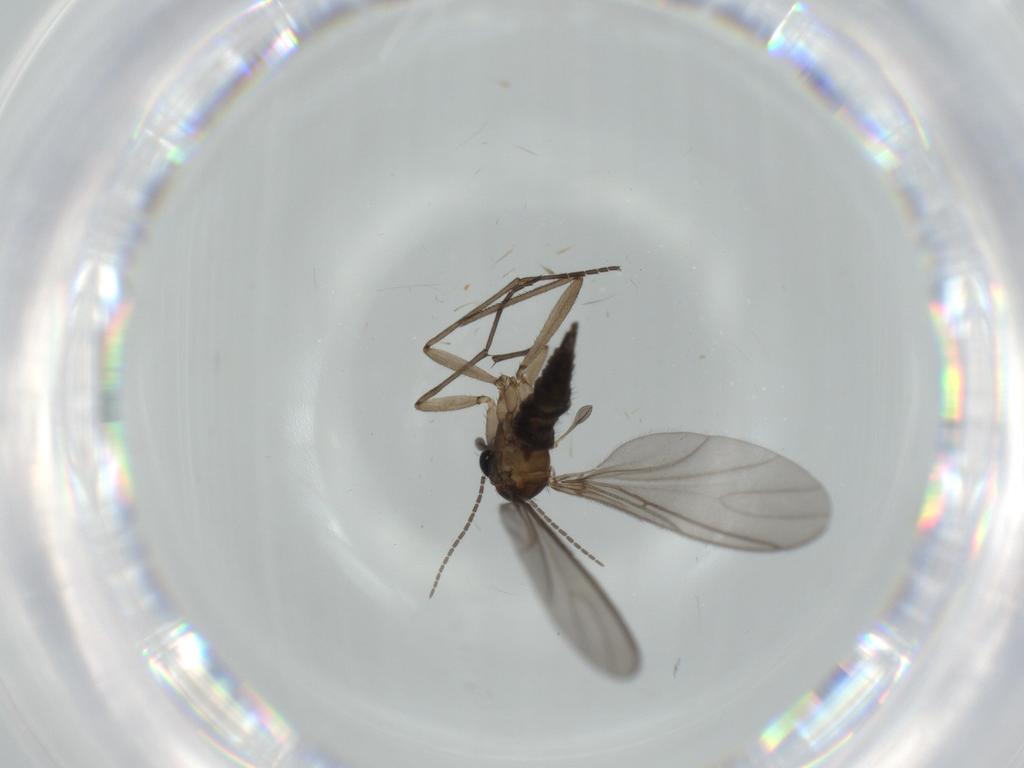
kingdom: Animalia
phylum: Arthropoda
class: Insecta
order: Diptera
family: Sciaridae
